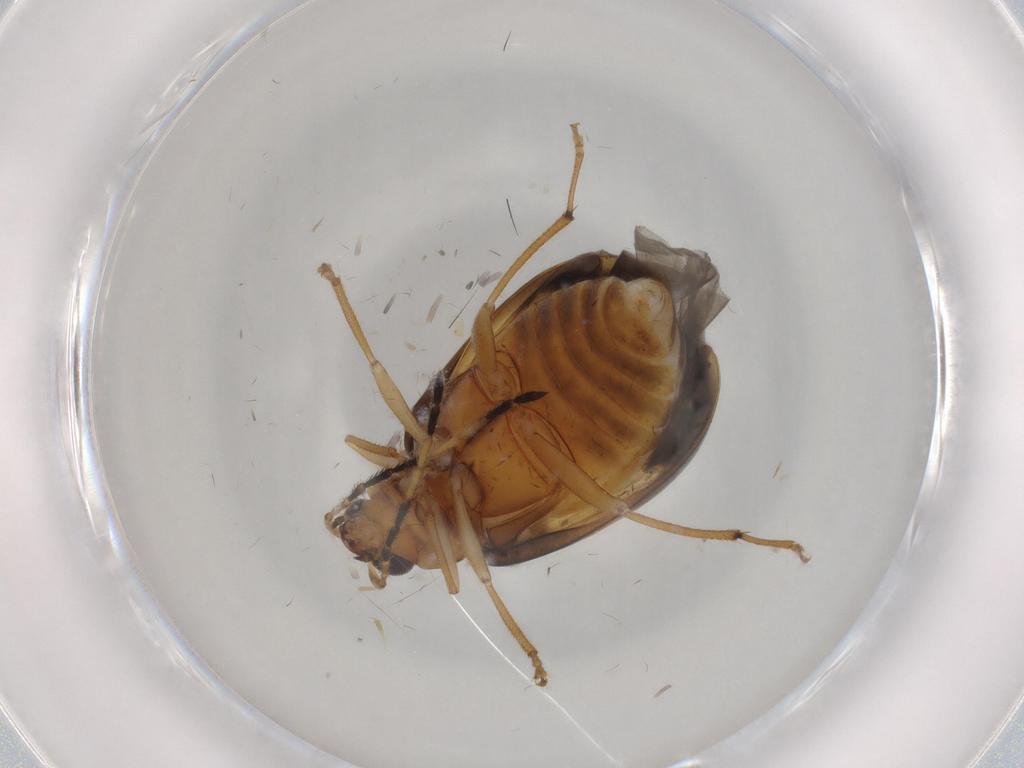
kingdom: Animalia
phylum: Arthropoda
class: Insecta
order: Coleoptera
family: Chrysomelidae
